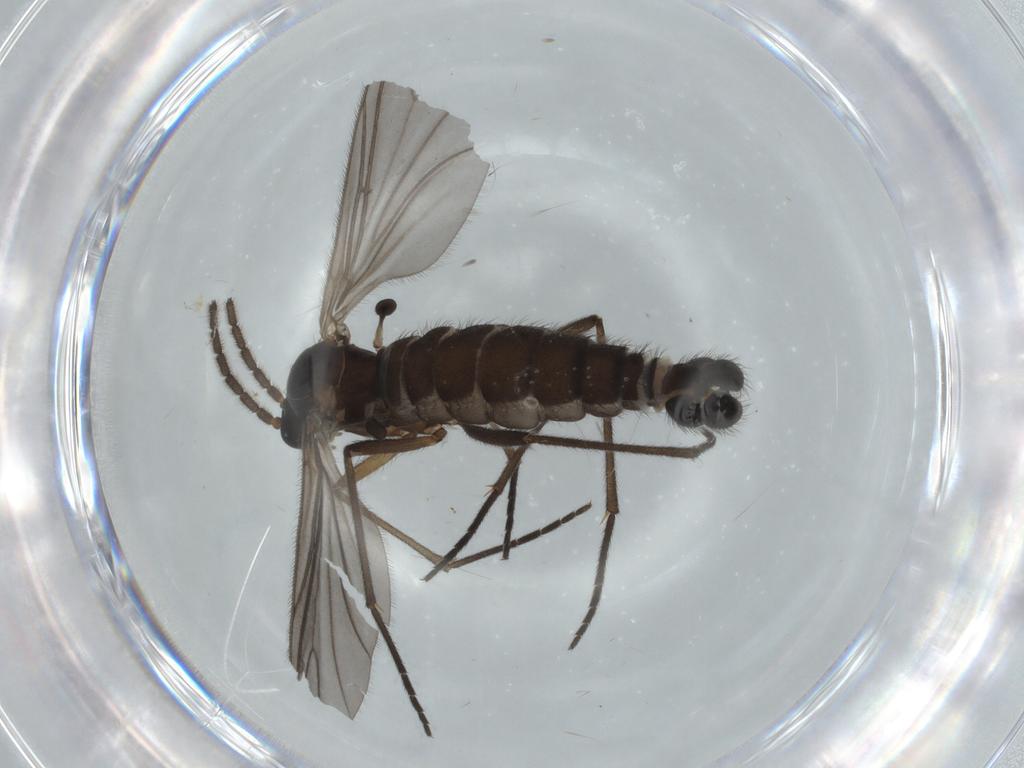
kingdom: Animalia
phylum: Arthropoda
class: Insecta
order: Diptera
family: Sciaridae
